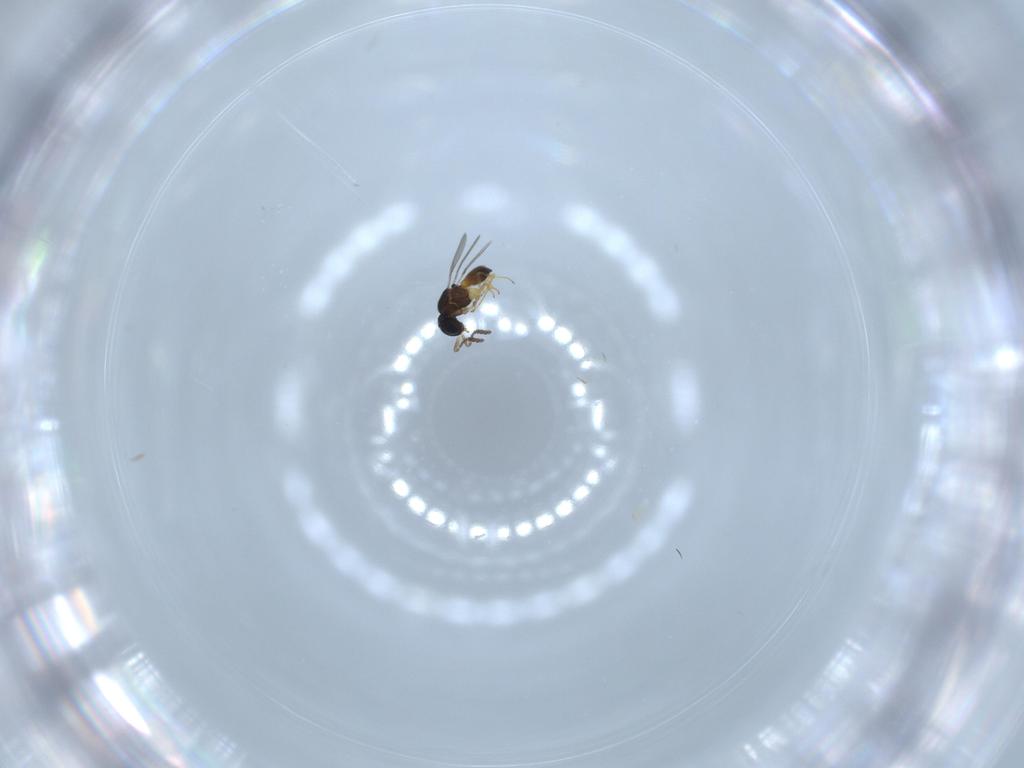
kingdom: Animalia
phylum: Arthropoda
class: Insecta
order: Hymenoptera
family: Scelionidae
